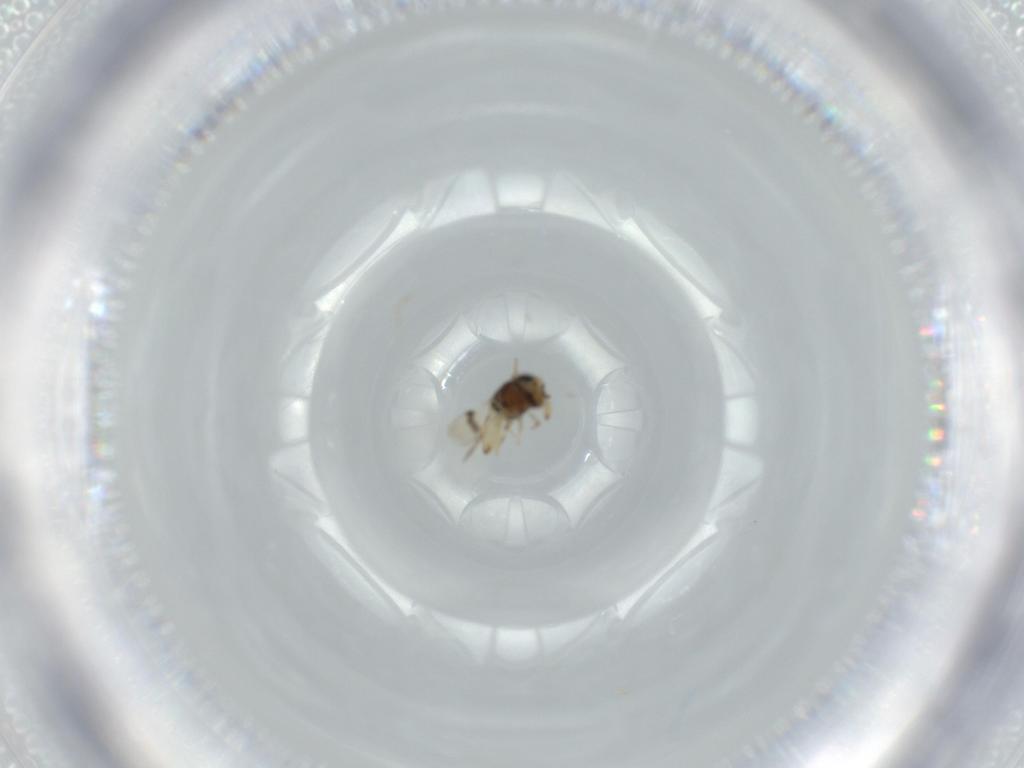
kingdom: Animalia
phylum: Arthropoda
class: Insecta
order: Hymenoptera
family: Scelionidae
